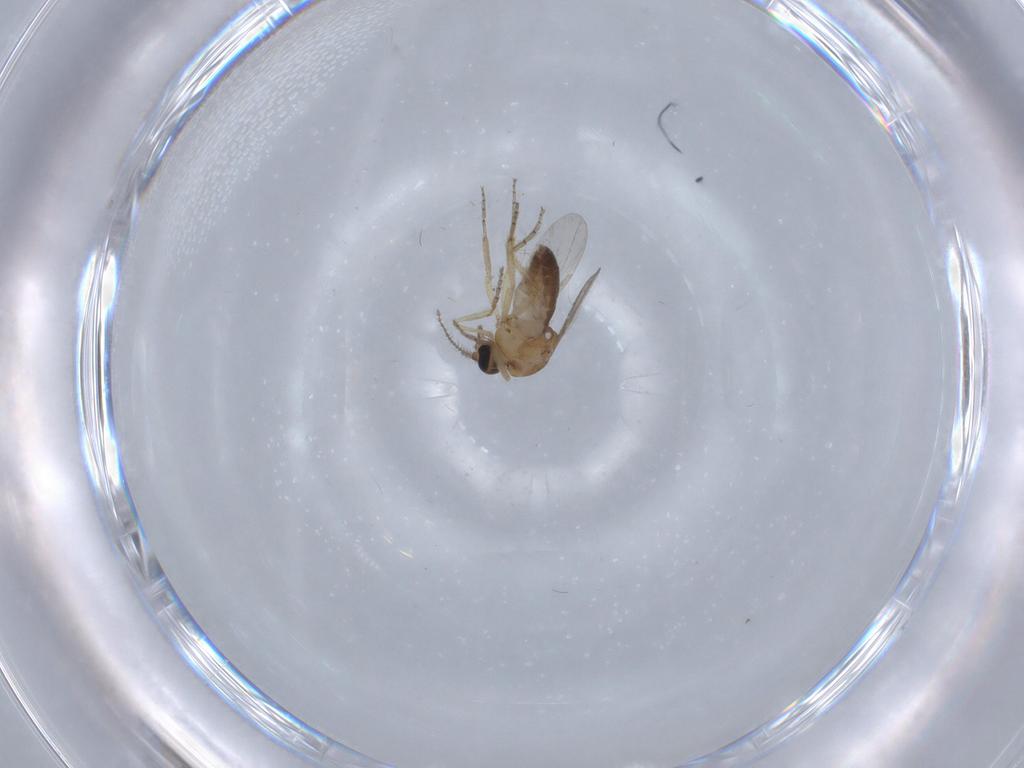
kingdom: Animalia
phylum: Arthropoda
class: Insecta
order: Diptera
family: Ceratopogonidae
